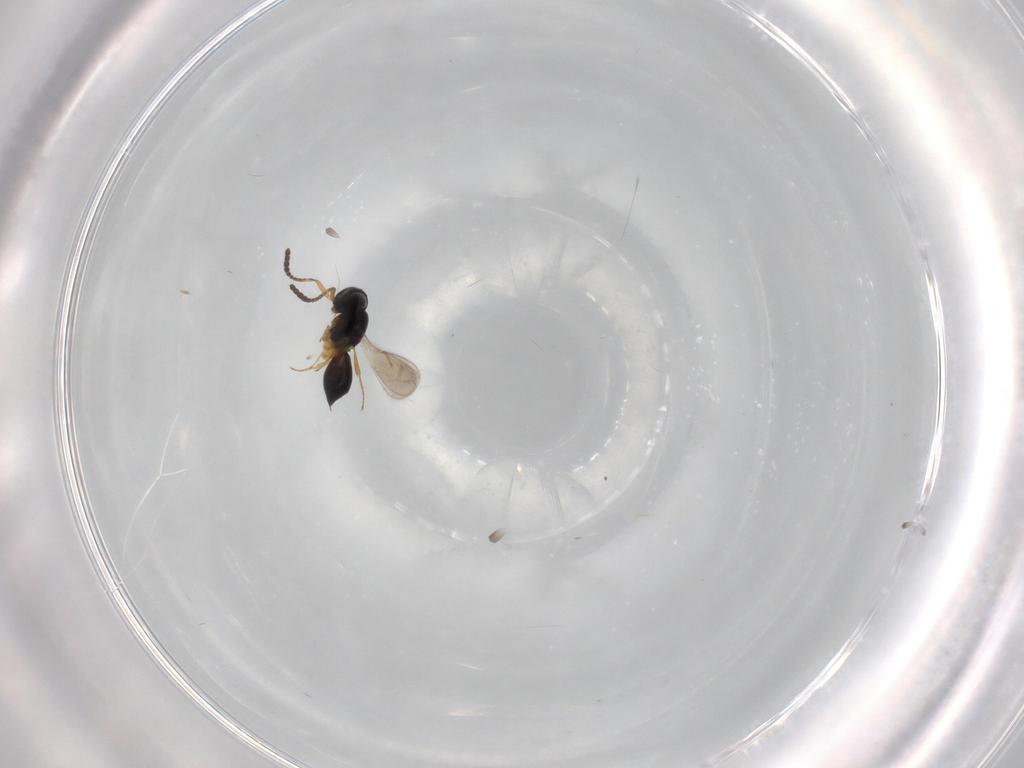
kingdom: Animalia
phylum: Arthropoda
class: Insecta
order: Hymenoptera
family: Scelionidae
